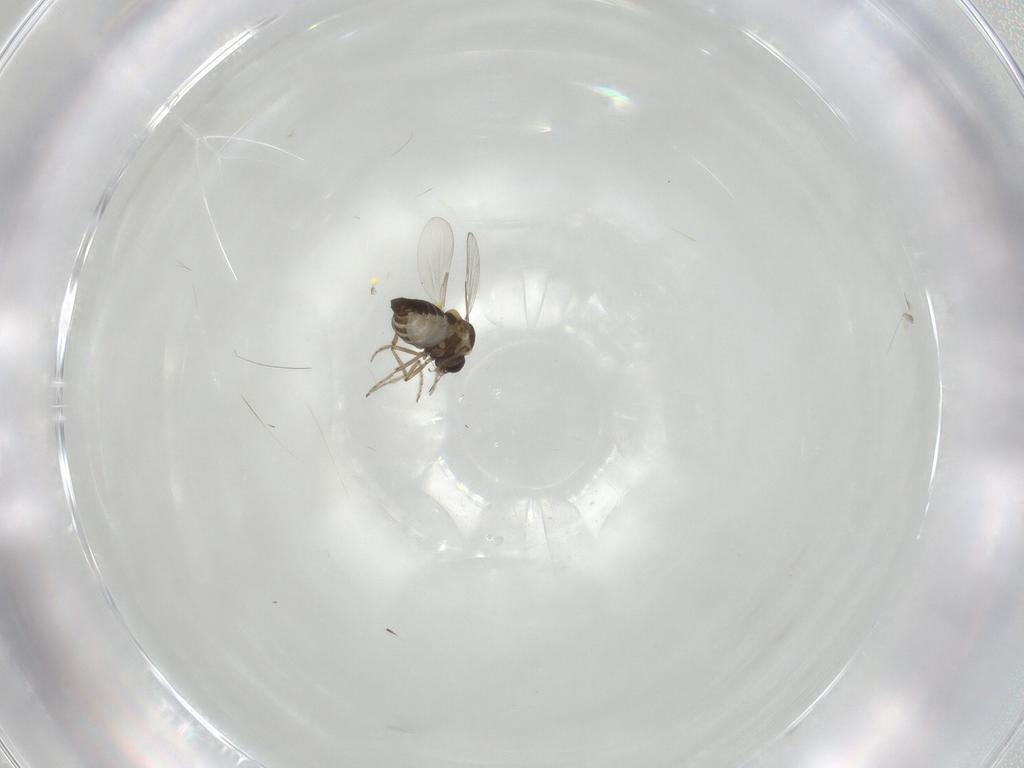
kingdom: Animalia
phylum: Arthropoda
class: Insecta
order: Diptera
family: Ceratopogonidae
